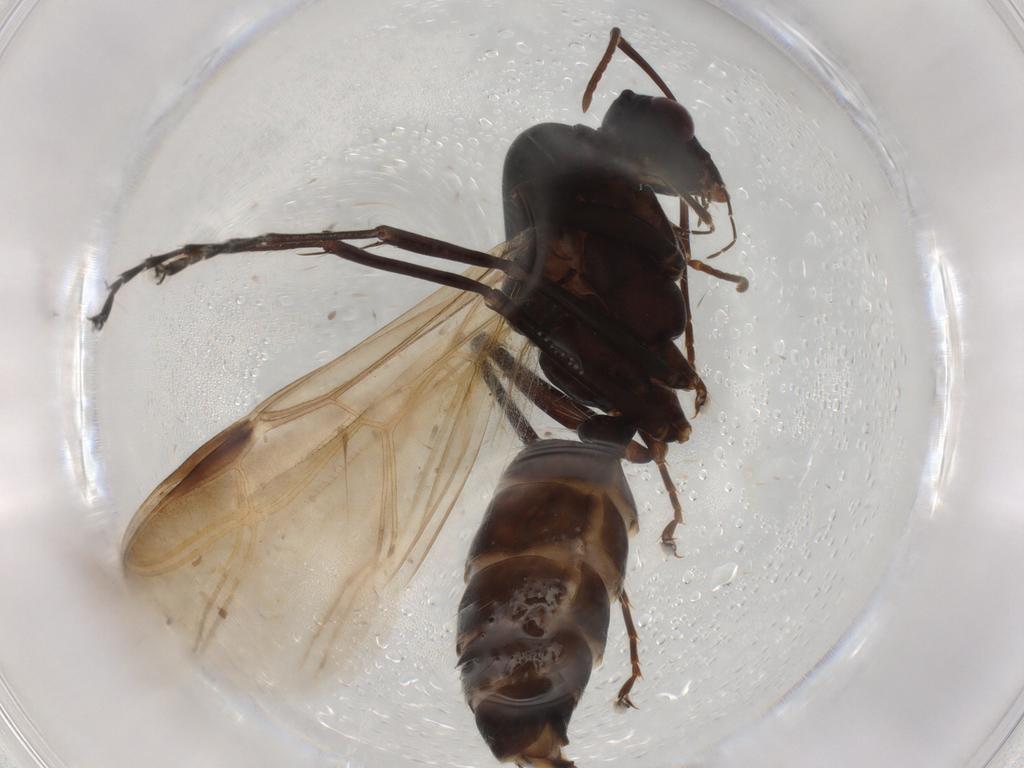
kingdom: Animalia
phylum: Arthropoda
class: Insecta
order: Hymenoptera
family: Formicidae
